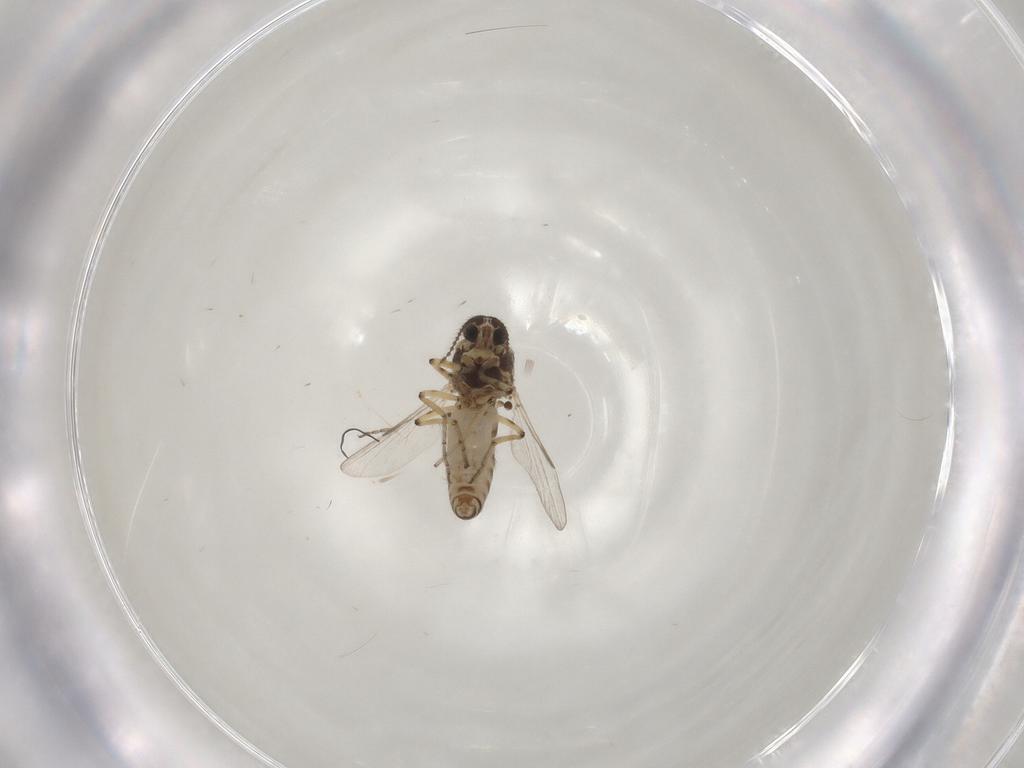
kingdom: Animalia
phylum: Arthropoda
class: Insecta
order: Diptera
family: Ceratopogonidae
